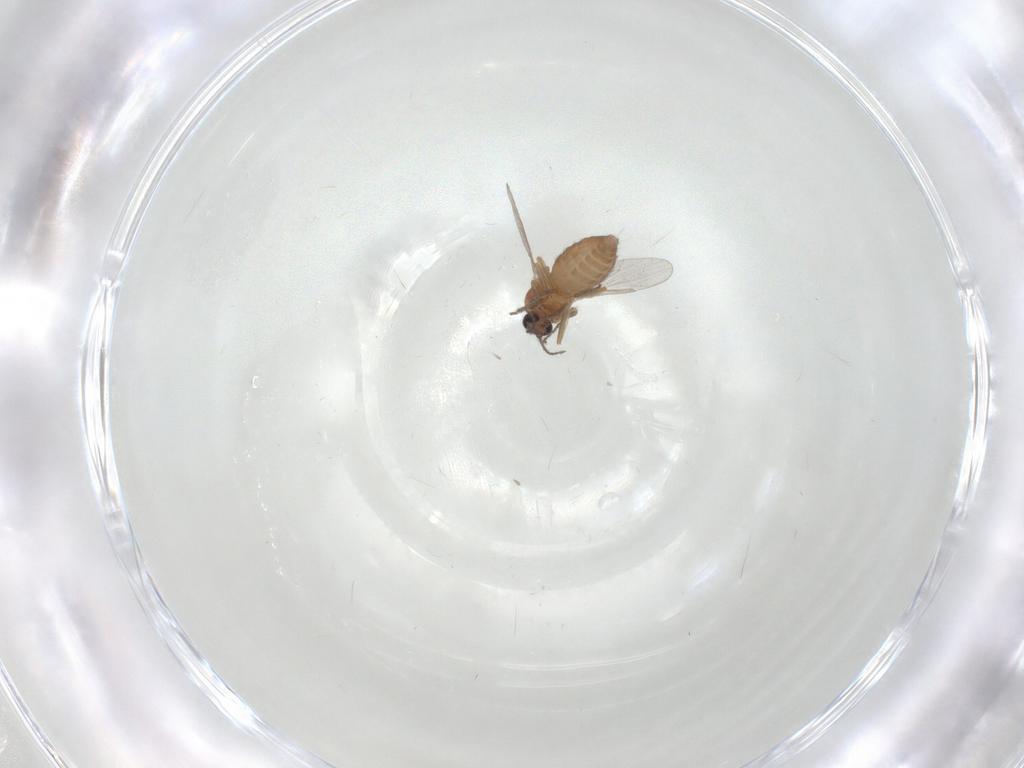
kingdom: Animalia
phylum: Arthropoda
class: Insecta
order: Diptera
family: Ceratopogonidae
